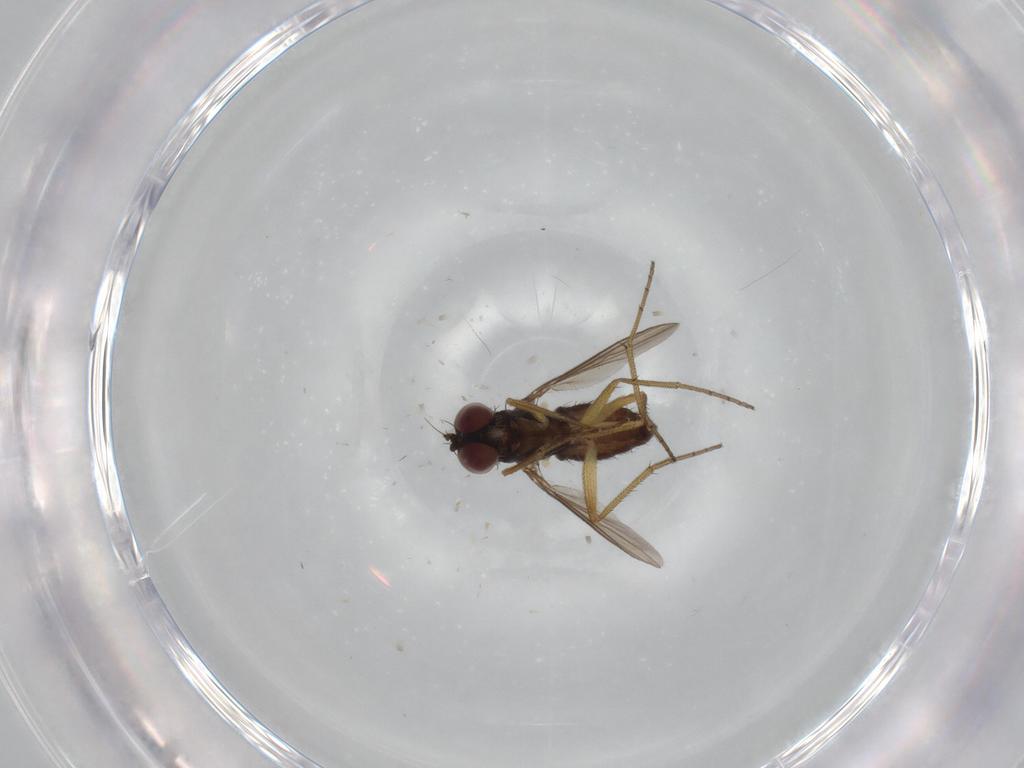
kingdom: Animalia
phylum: Arthropoda
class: Insecta
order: Diptera
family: Dolichopodidae
